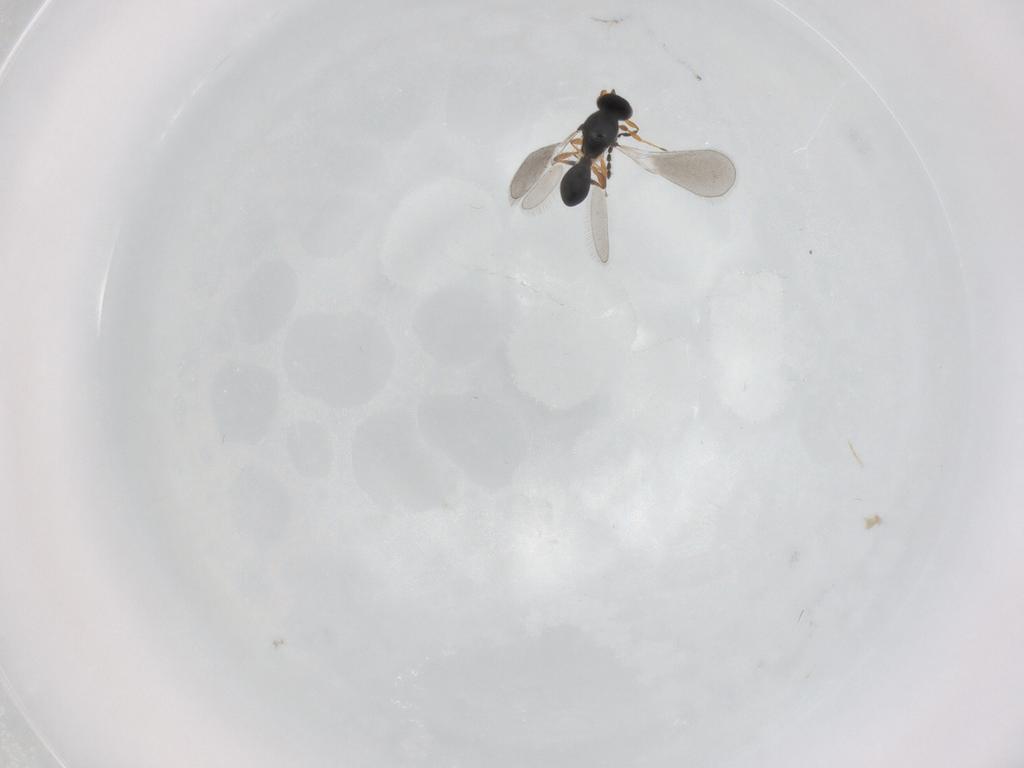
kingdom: Animalia
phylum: Arthropoda
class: Insecta
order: Hymenoptera
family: Platygastridae
